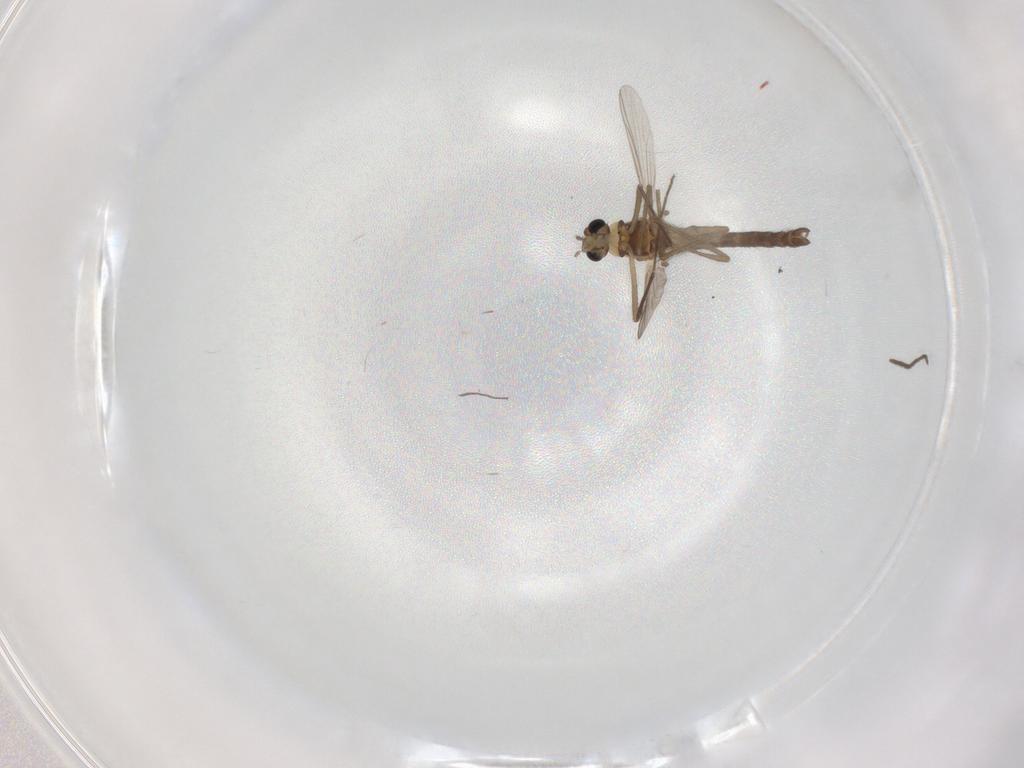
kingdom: Animalia
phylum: Arthropoda
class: Insecta
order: Diptera
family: Chironomidae
